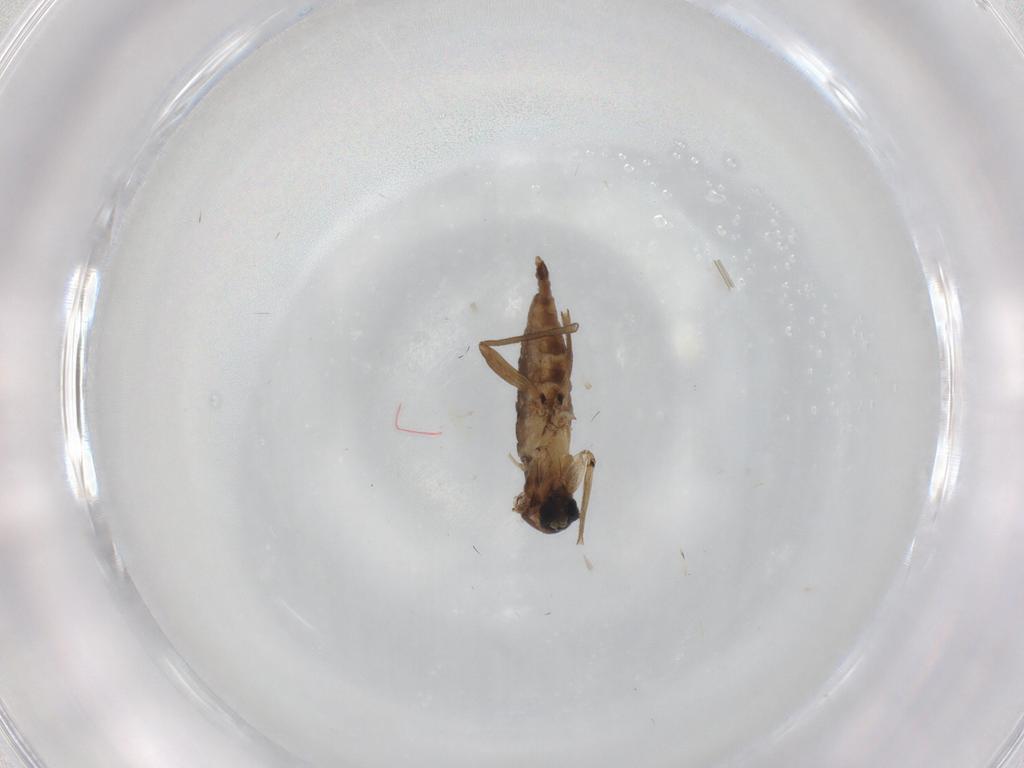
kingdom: Animalia
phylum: Arthropoda
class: Insecta
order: Diptera
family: Sciaridae
